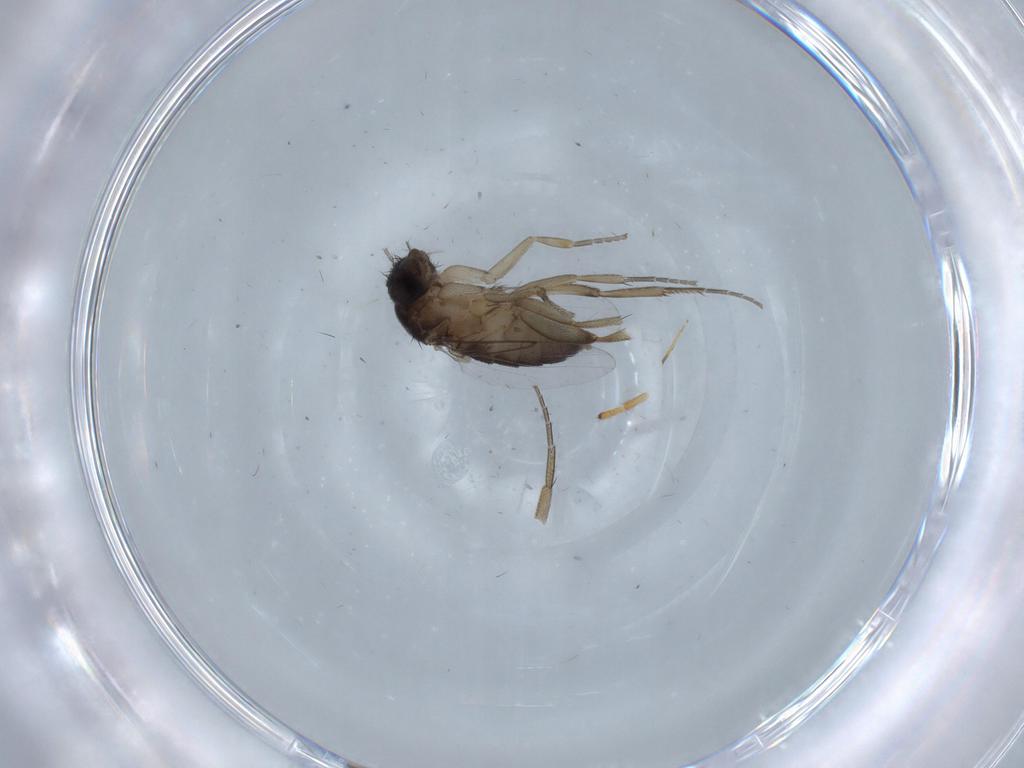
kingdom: Animalia
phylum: Arthropoda
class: Insecta
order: Diptera
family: Phoridae
